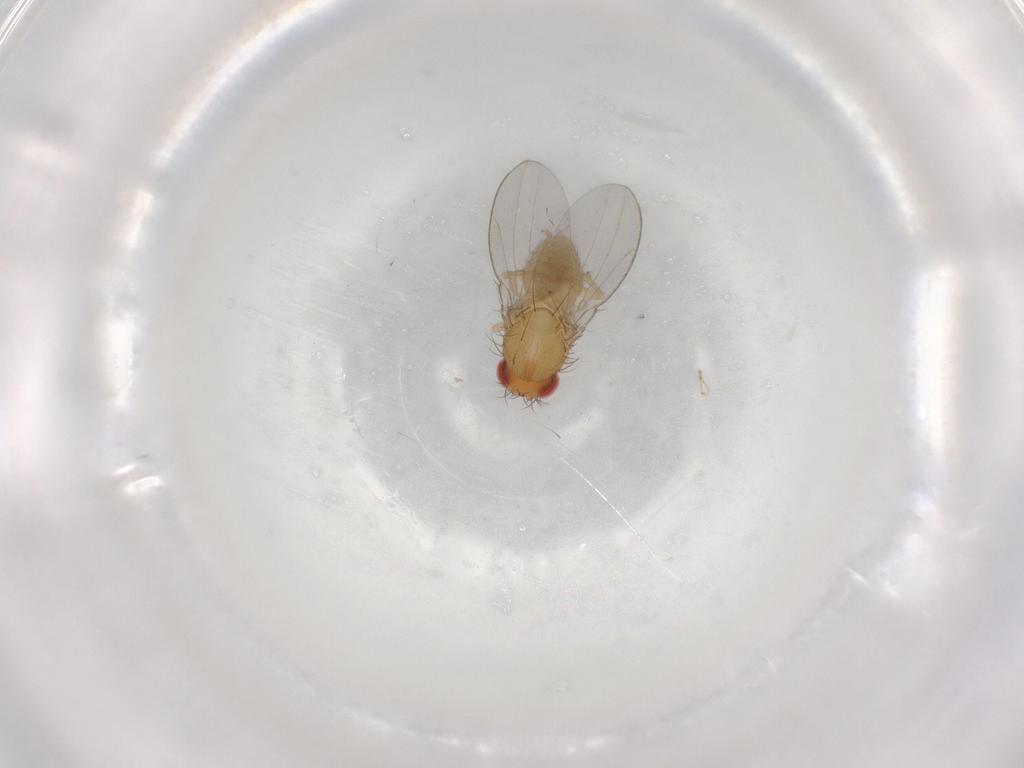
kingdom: Animalia
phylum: Arthropoda
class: Insecta
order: Diptera
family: Drosophilidae
